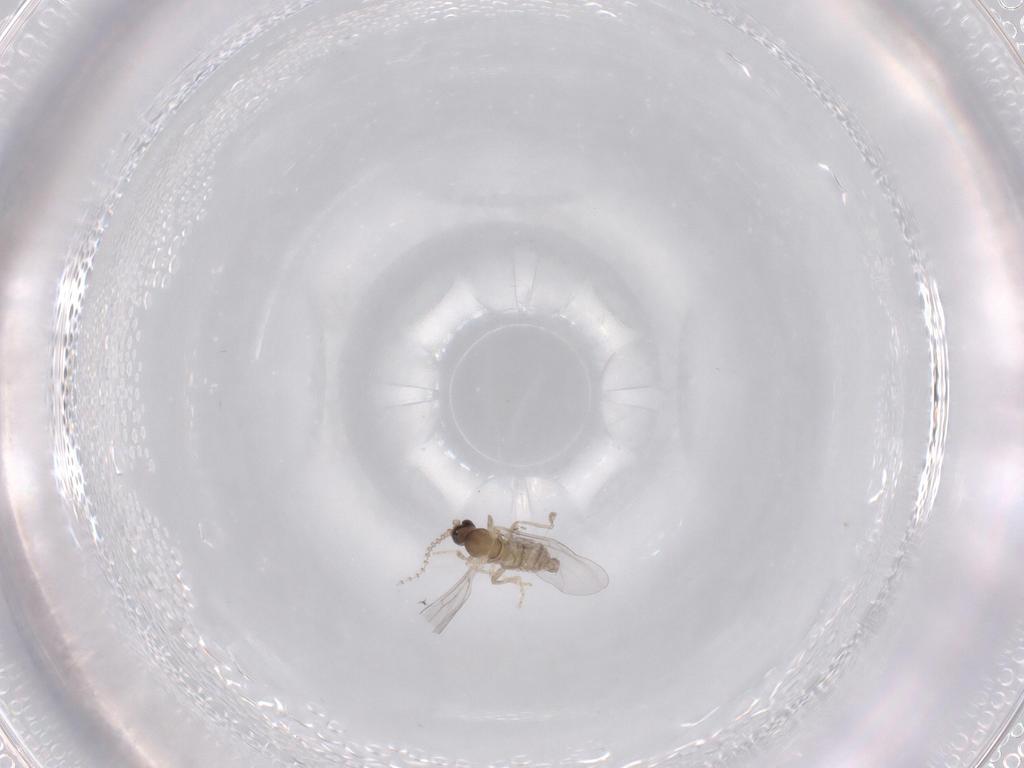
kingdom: Animalia
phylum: Arthropoda
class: Insecta
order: Diptera
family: Cecidomyiidae
